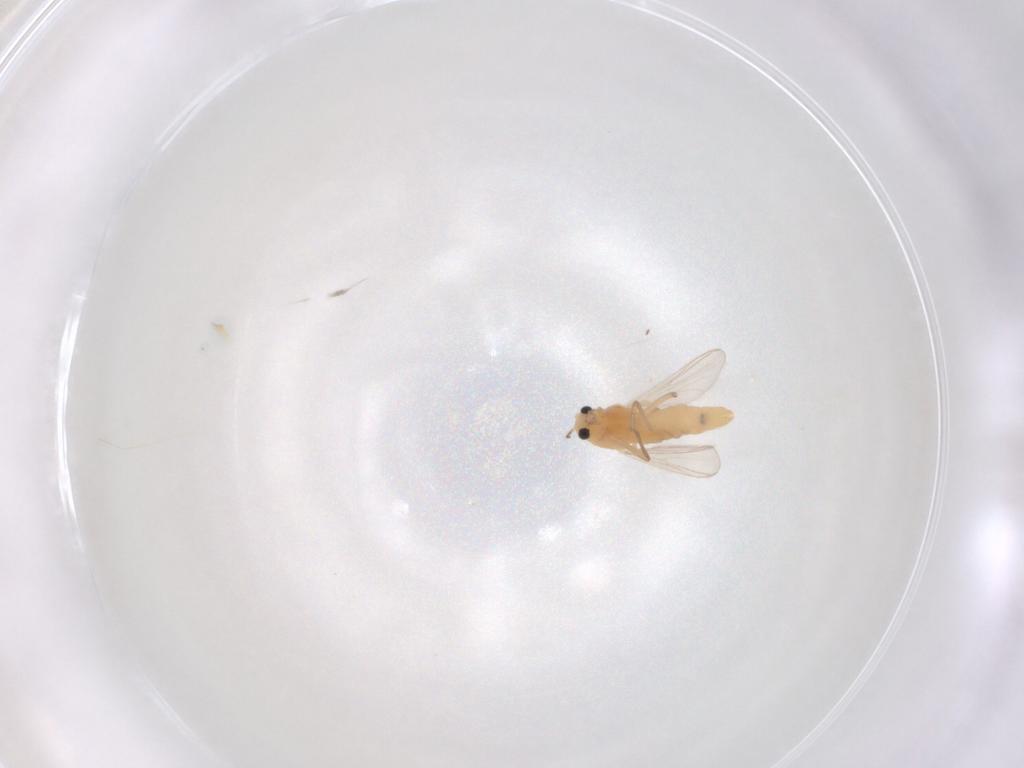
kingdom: Animalia
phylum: Arthropoda
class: Insecta
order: Diptera
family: Chironomidae
